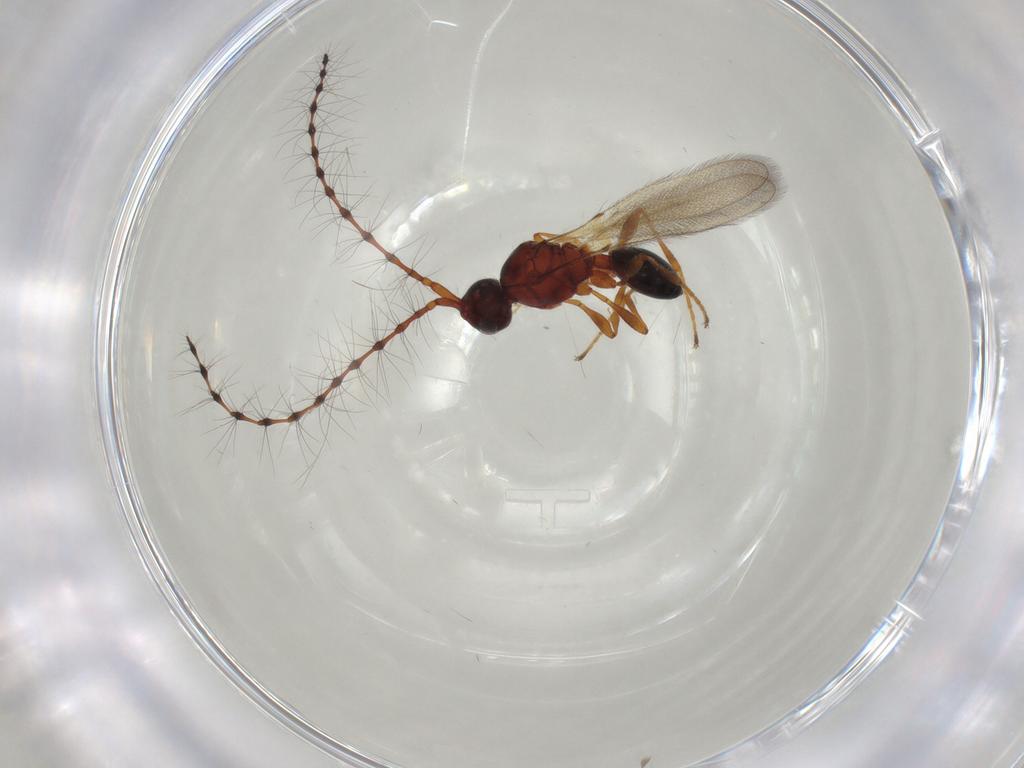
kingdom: Animalia
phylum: Arthropoda
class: Insecta
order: Hymenoptera
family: Diapriidae
